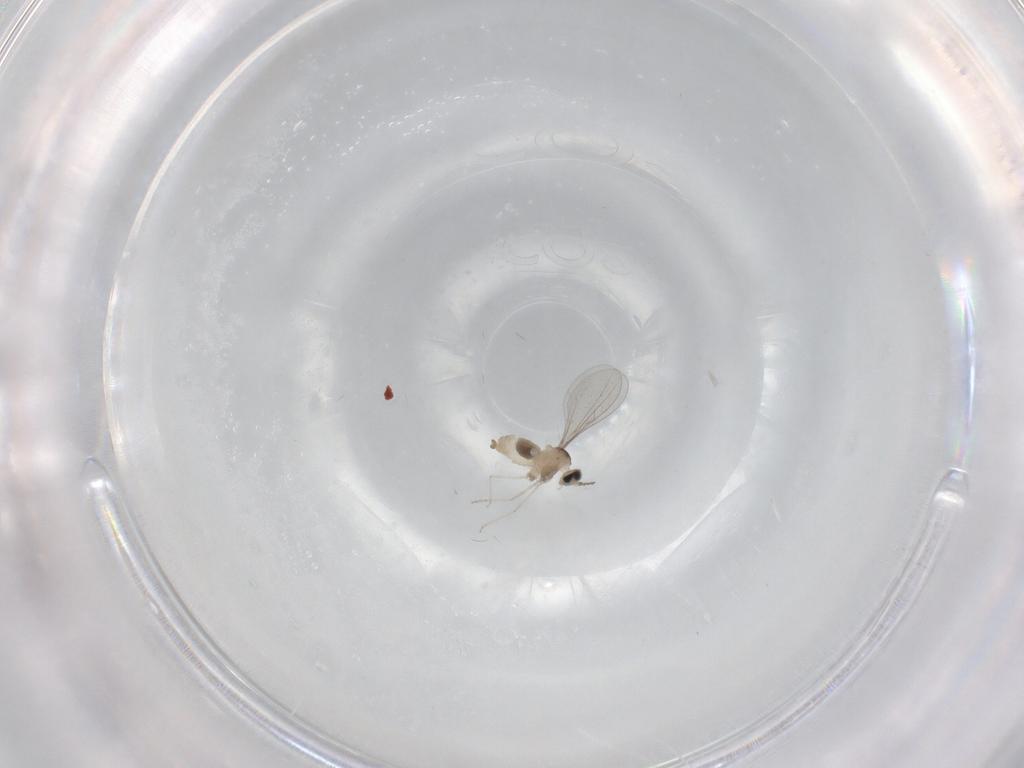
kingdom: Animalia
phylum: Arthropoda
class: Insecta
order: Diptera
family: Cecidomyiidae
